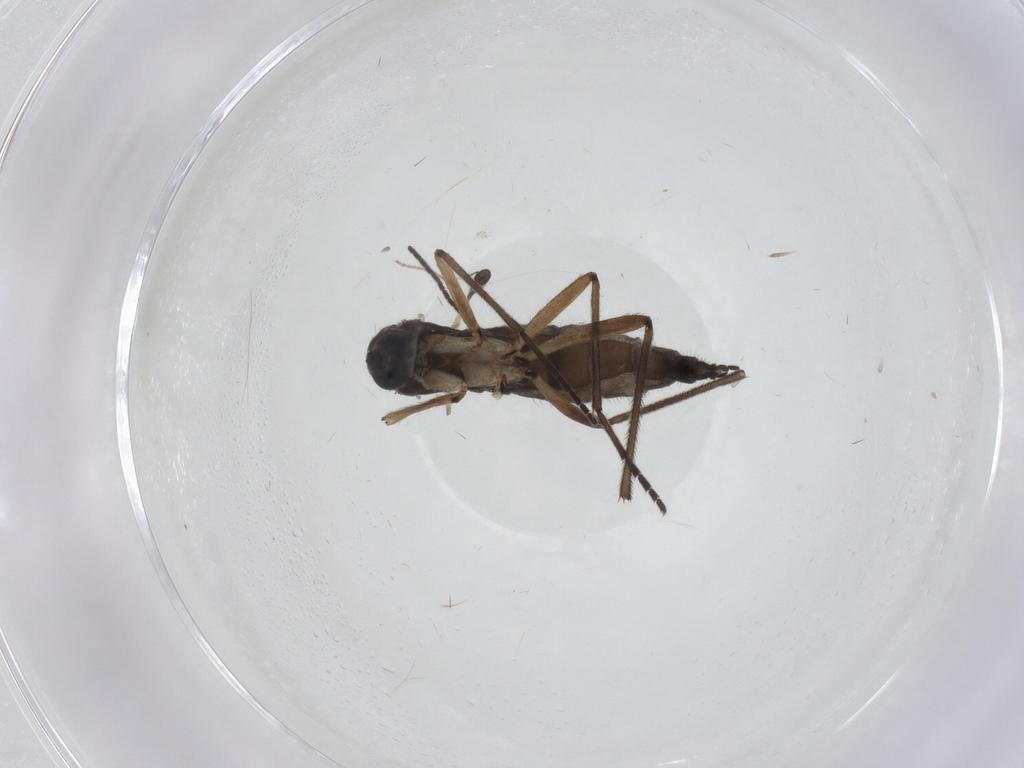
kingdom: Animalia
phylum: Arthropoda
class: Insecta
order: Diptera
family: Sciaridae
